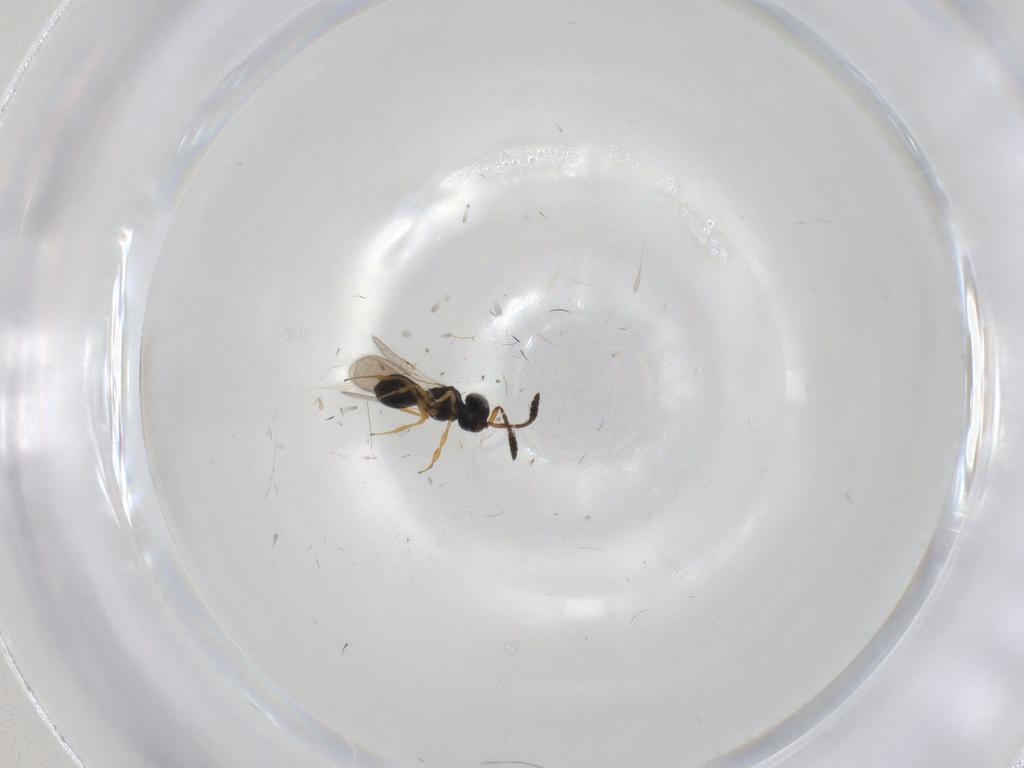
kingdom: Animalia
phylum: Arthropoda
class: Insecta
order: Hymenoptera
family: Scelionidae
